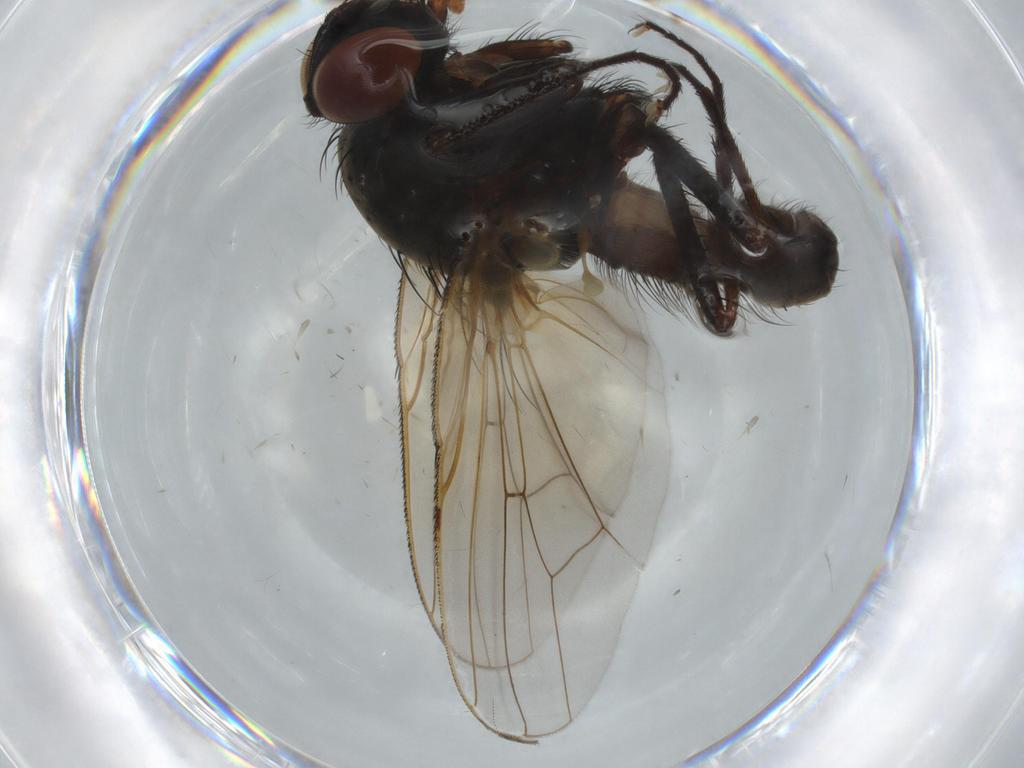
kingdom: Animalia
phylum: Arthropoda
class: Insecta
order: Diptera
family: Anthomyiidae
